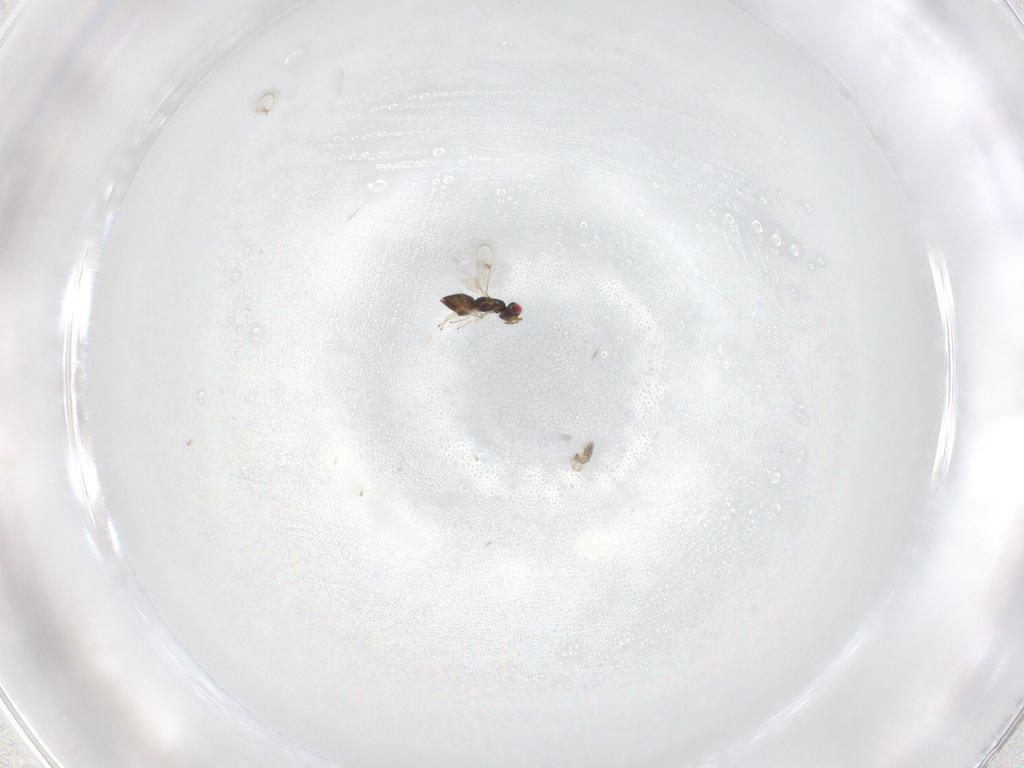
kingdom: Animalia
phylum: Arthropoda
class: Insecta
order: Hymenoptera
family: Eulophidae
